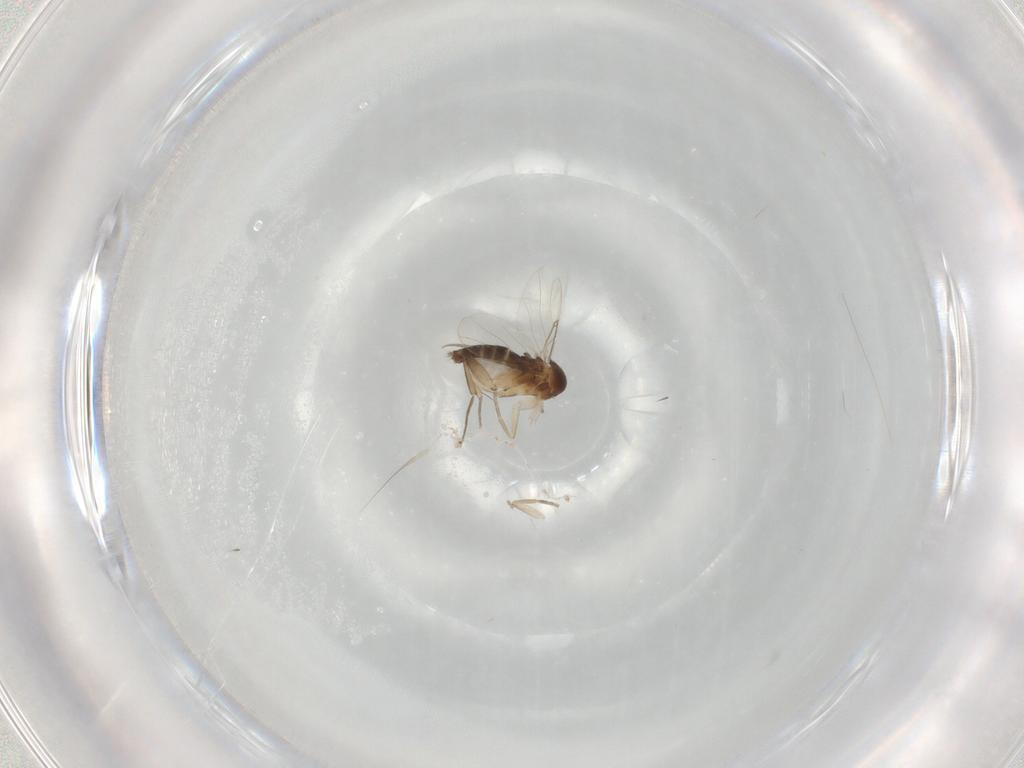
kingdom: Animalia
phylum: Arthropoda
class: Insecta
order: Diptera
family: Phoridae
